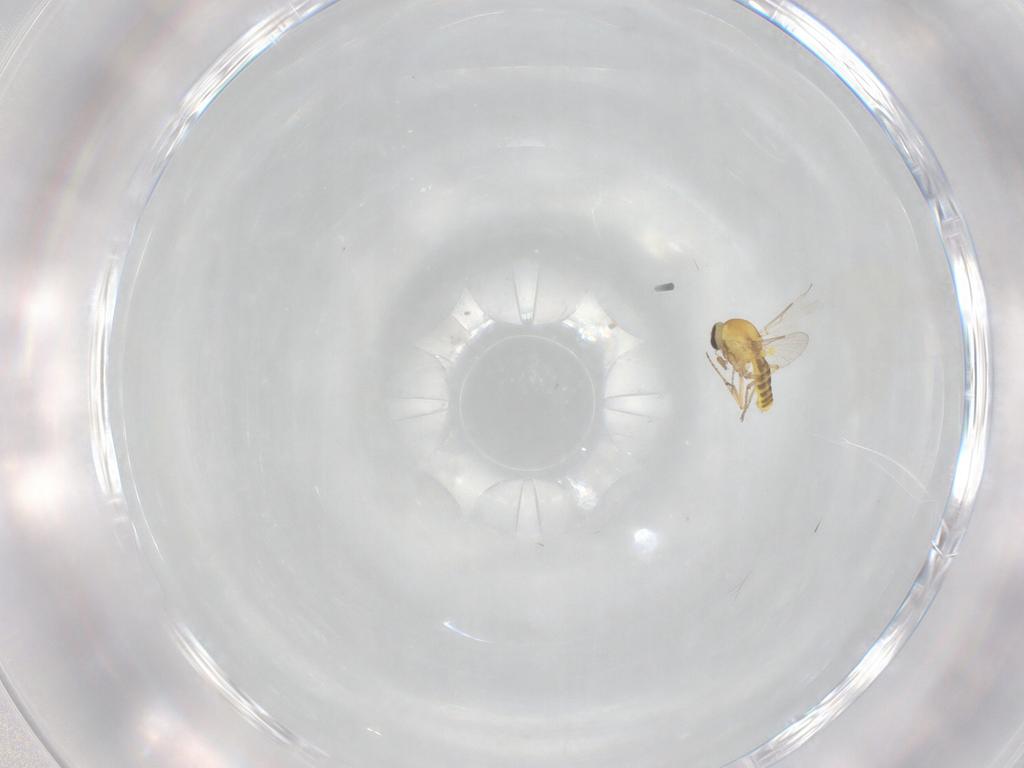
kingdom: Animalia
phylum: Arthropoda
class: Insecta
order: Diptera
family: Ceratopogonidae
